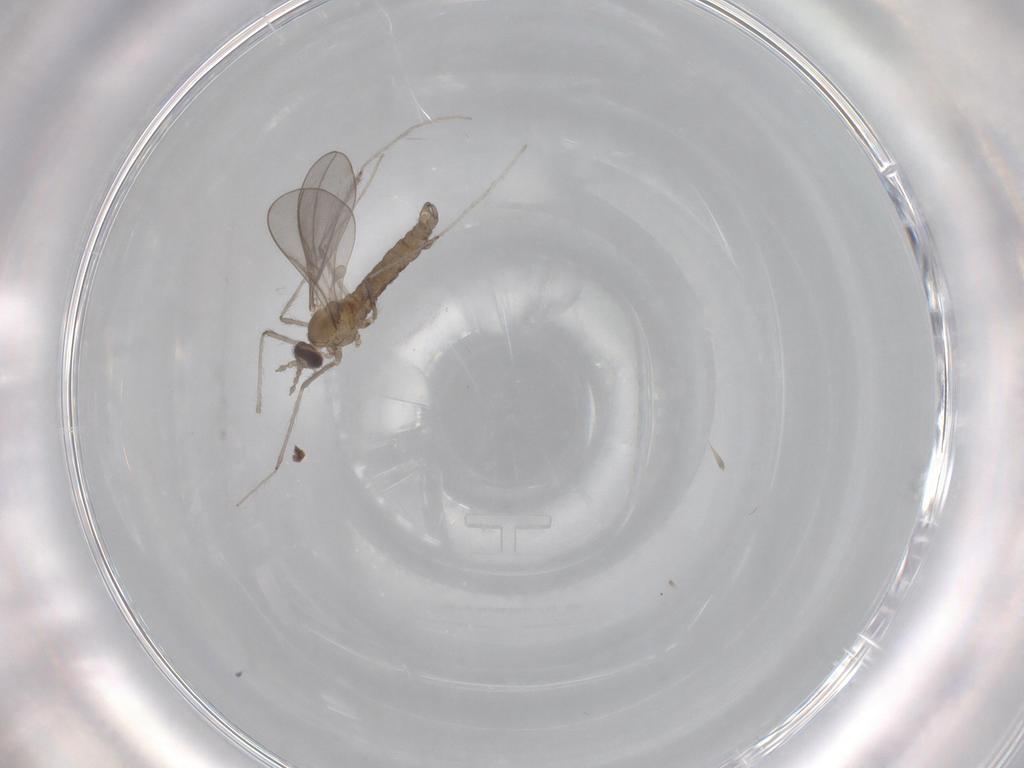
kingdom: Animalia
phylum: Arthropoda
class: Insecta
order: Diptera
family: Cecidomyiidae
